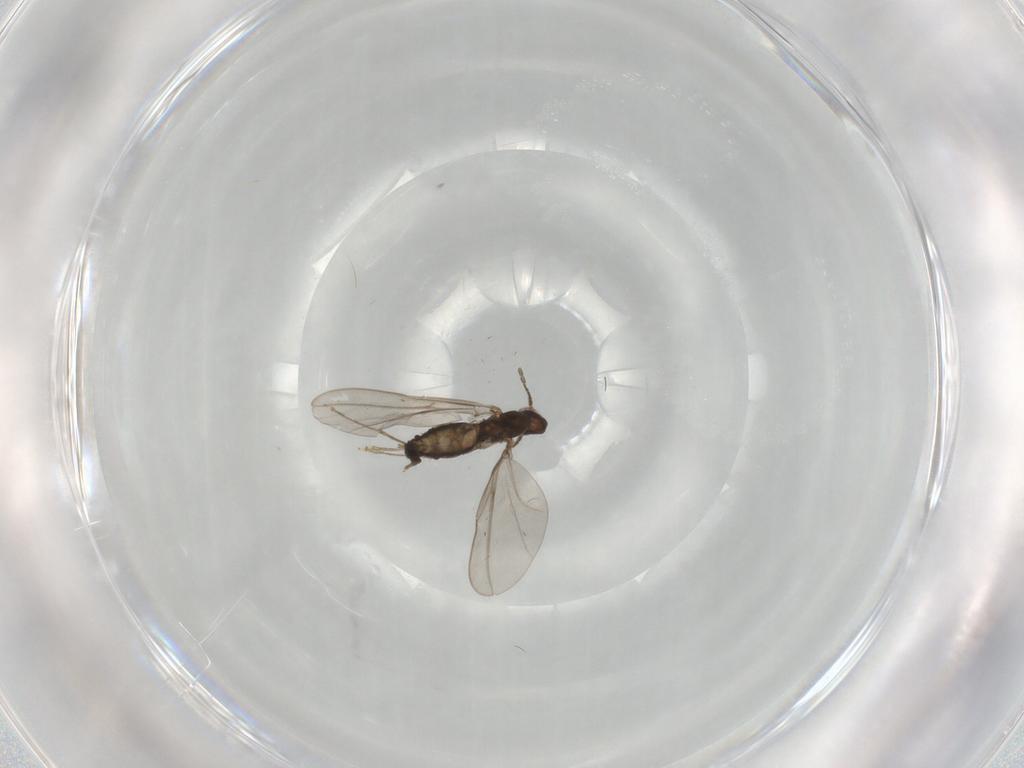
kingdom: Animalia
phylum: Arthropoda
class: Insecta
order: Diptera
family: Cecidomyiidae
